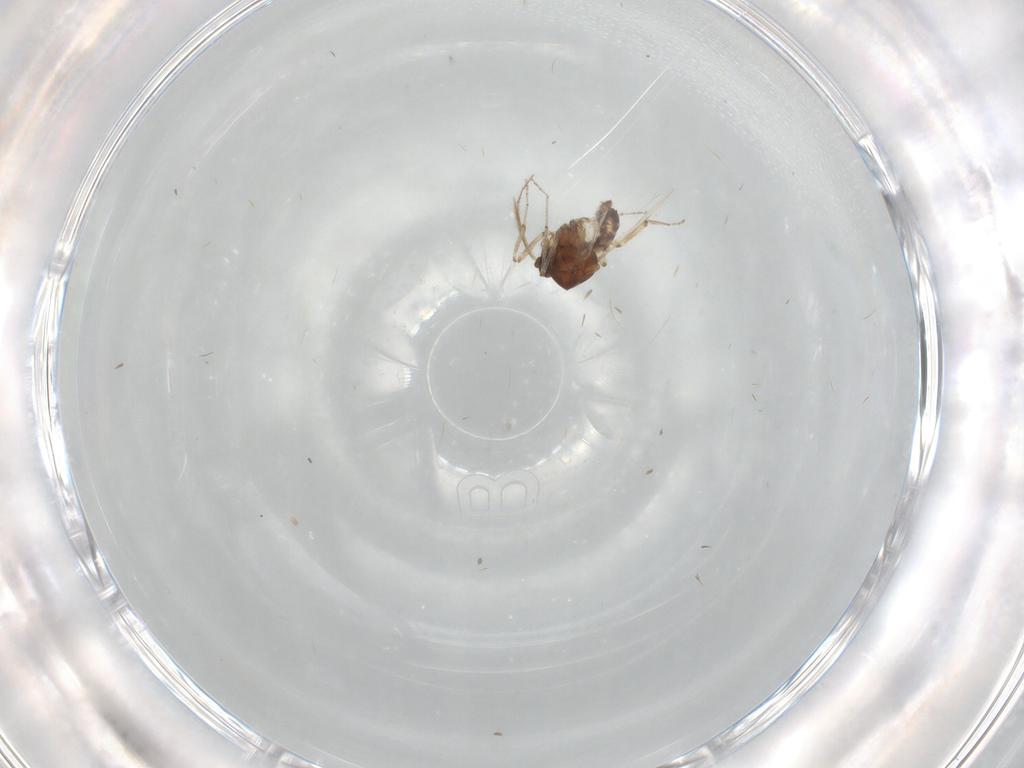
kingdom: Animalia
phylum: Arthropoda
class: Insecta
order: Diptera
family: Ceratopogonidae
